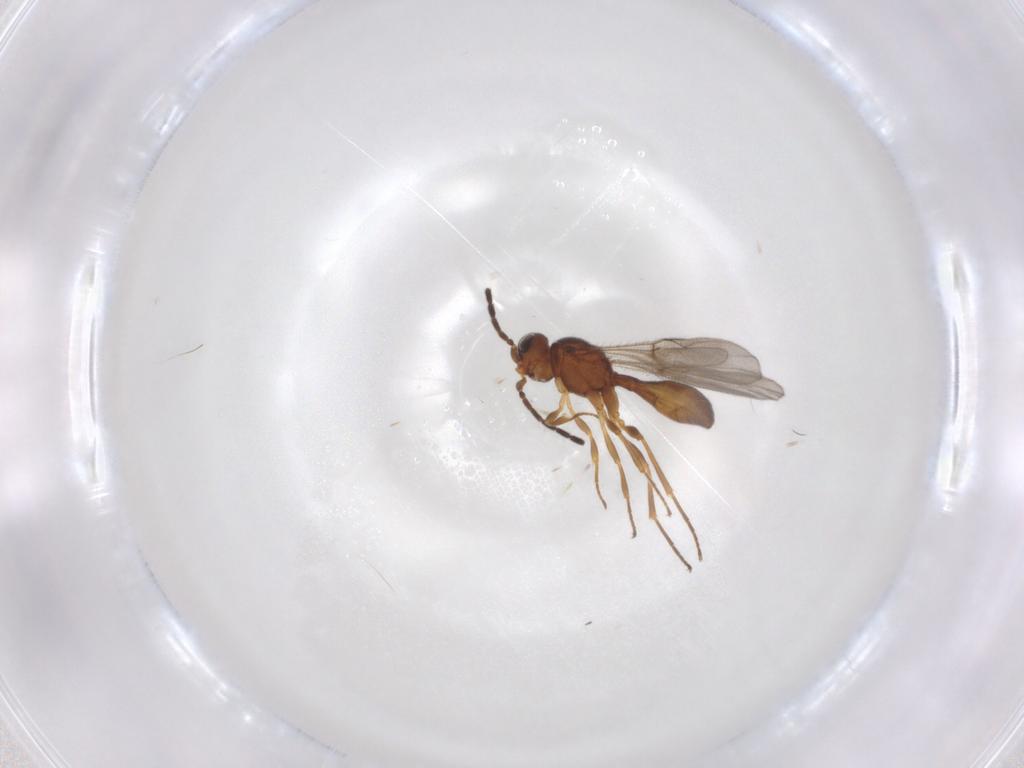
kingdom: Animalia
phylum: Arthropoda
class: Insecta
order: Hymenoptera
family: Scelionidae
